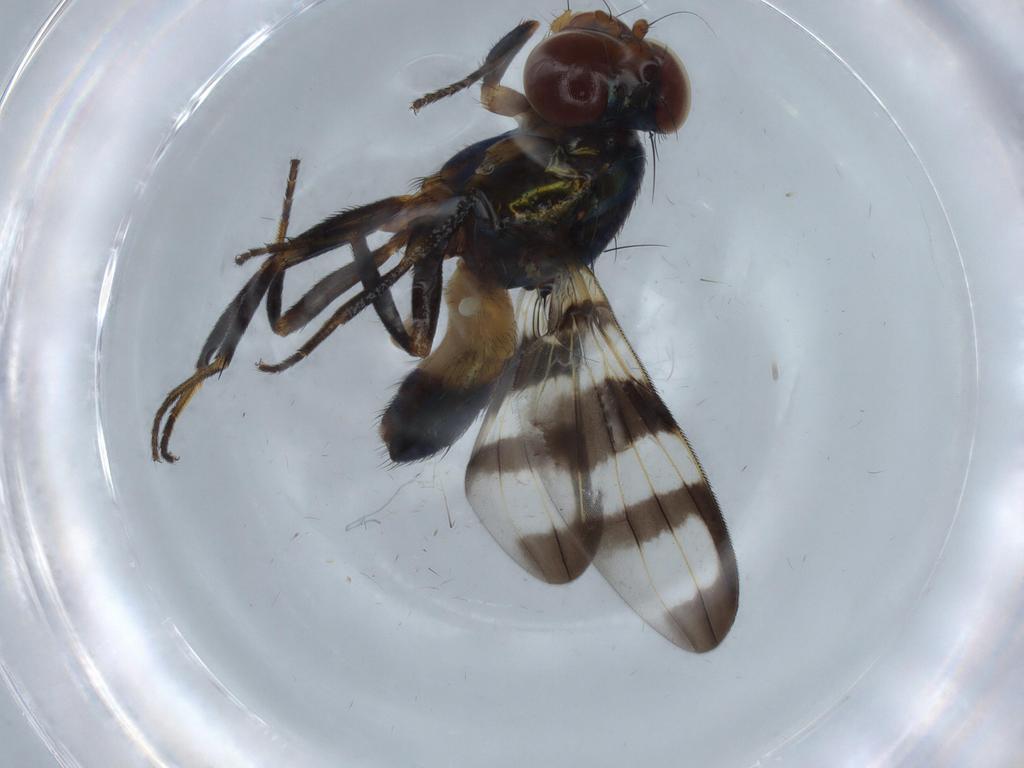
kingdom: Animalia
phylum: Arthropoda
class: Insecta
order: Diptera
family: Ulidiidae
